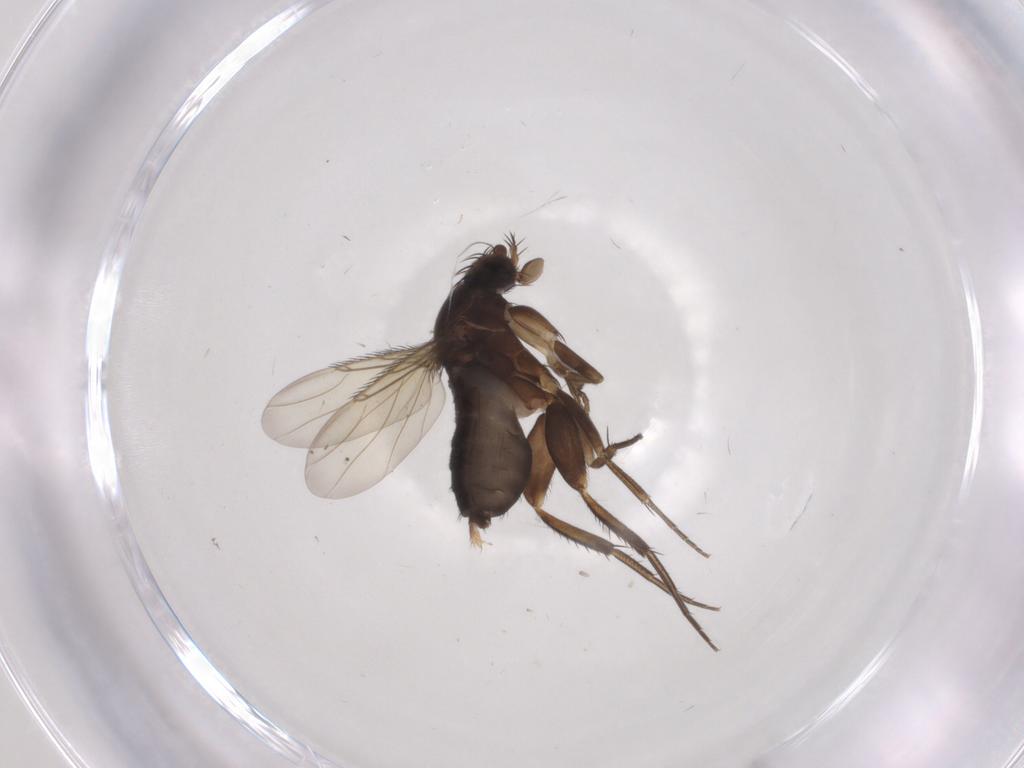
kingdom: Animalia
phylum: Arthropoda
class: Insecta
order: Diptera
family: Phoridae
